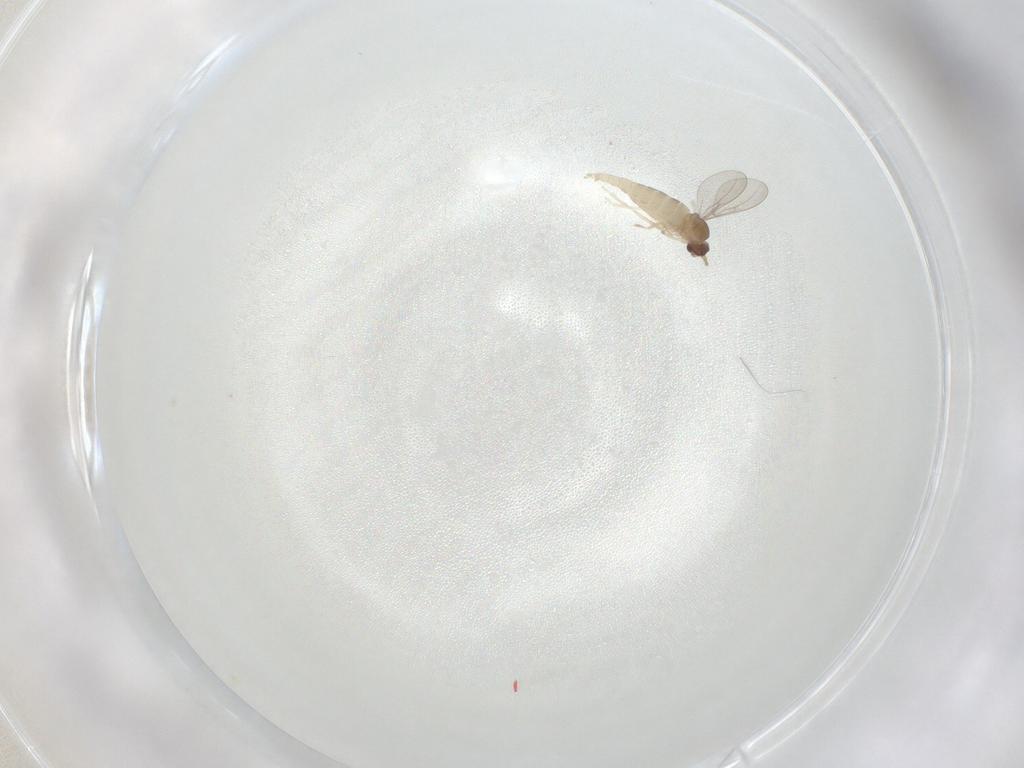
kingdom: Animalia
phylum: Arthropoda
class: Insecta
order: Diptera
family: Cecidomyiidae
